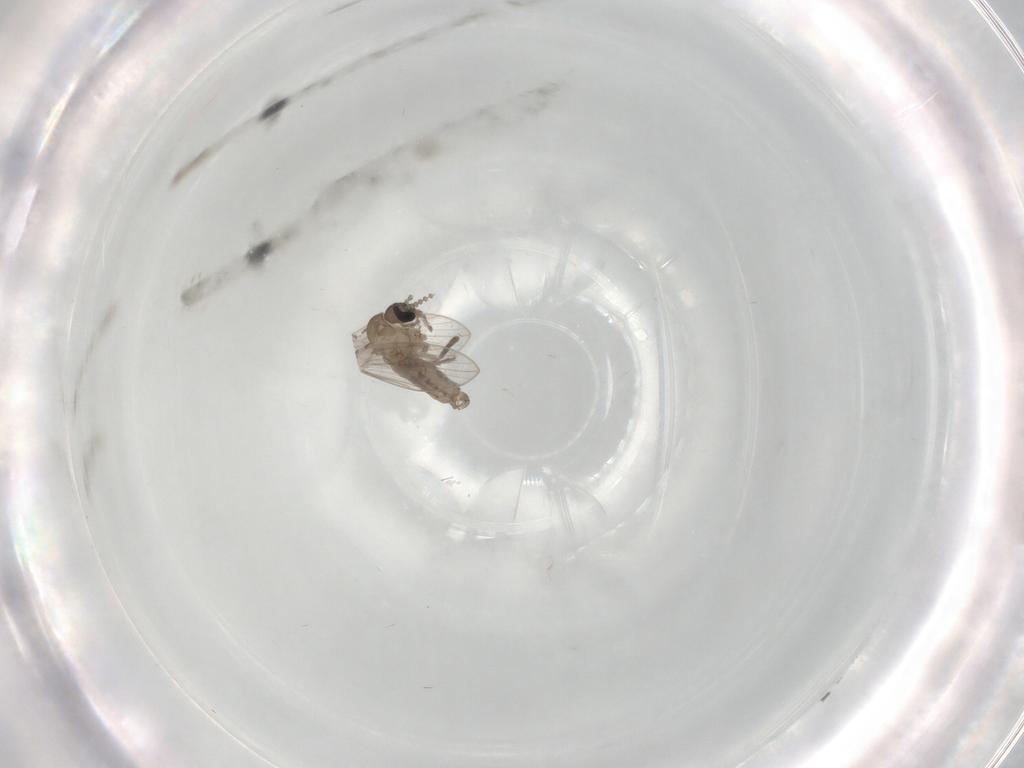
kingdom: Animalia
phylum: Arthropoda
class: Insecta
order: Diptera
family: Psychodidae
